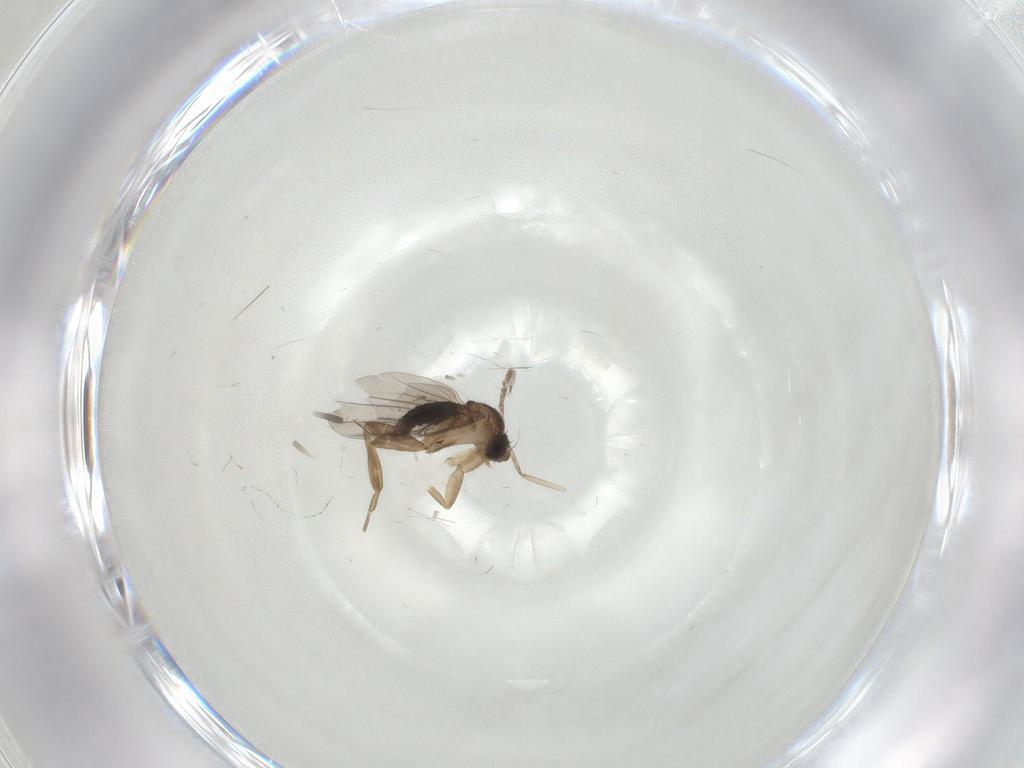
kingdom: Animalia
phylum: Arthropoda
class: Insecta
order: Diptera
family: Chironomidae
